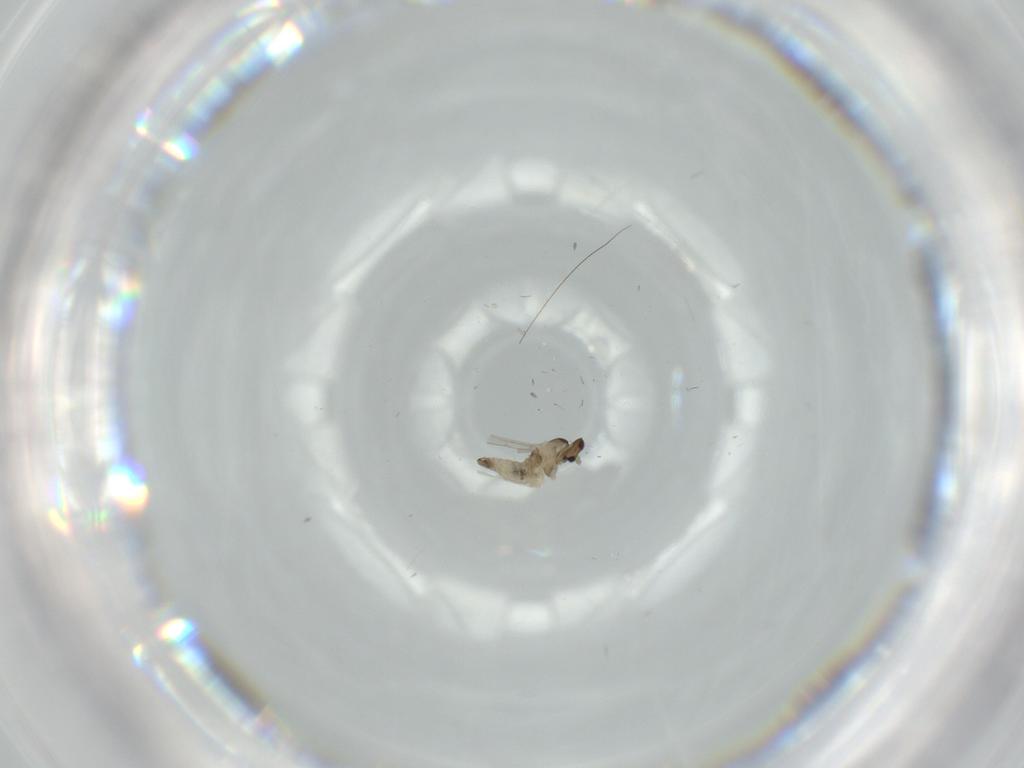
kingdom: Animalia
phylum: Arthropoda
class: Insecta
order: Diptera
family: Cecidomyiidae
